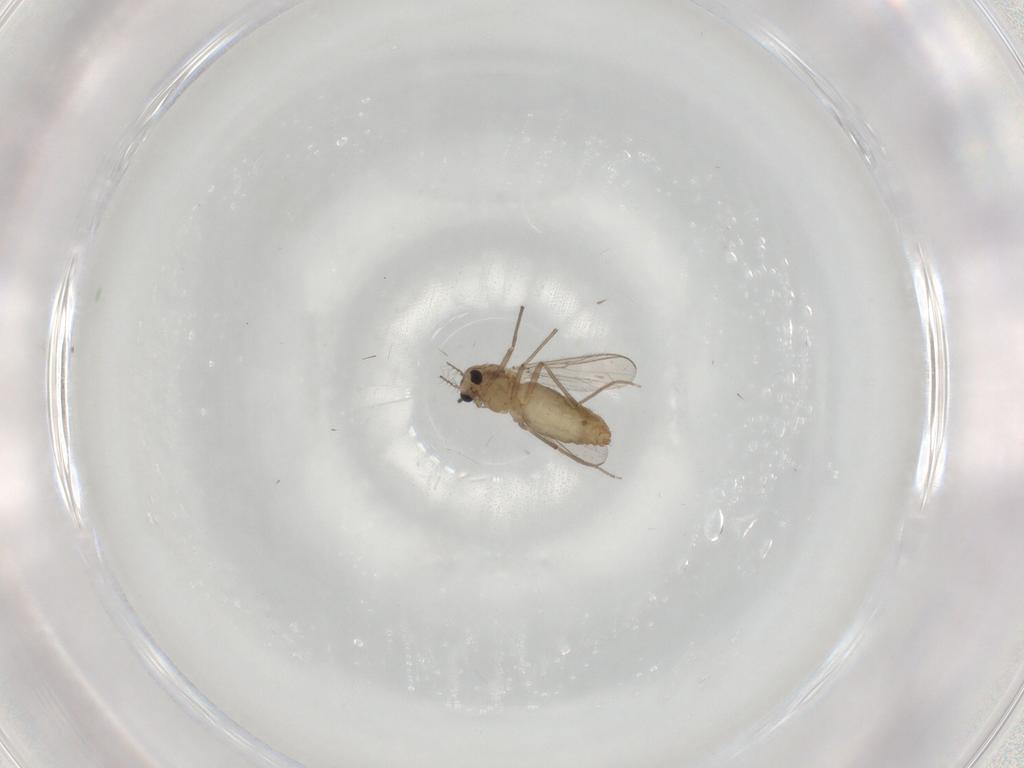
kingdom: Animalia
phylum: Arthropoda
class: Insecta
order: Diptera
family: Chironomidae
